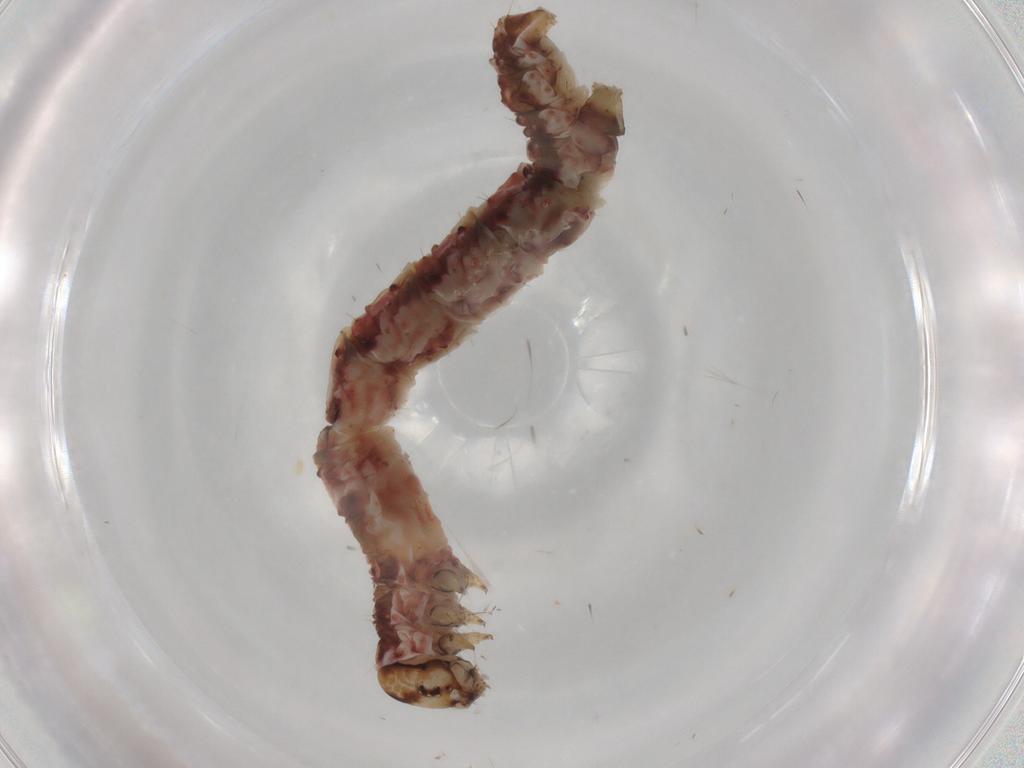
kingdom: Animalia
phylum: Arthropoda
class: Insecta
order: Lepidoptera
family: Geometridae
